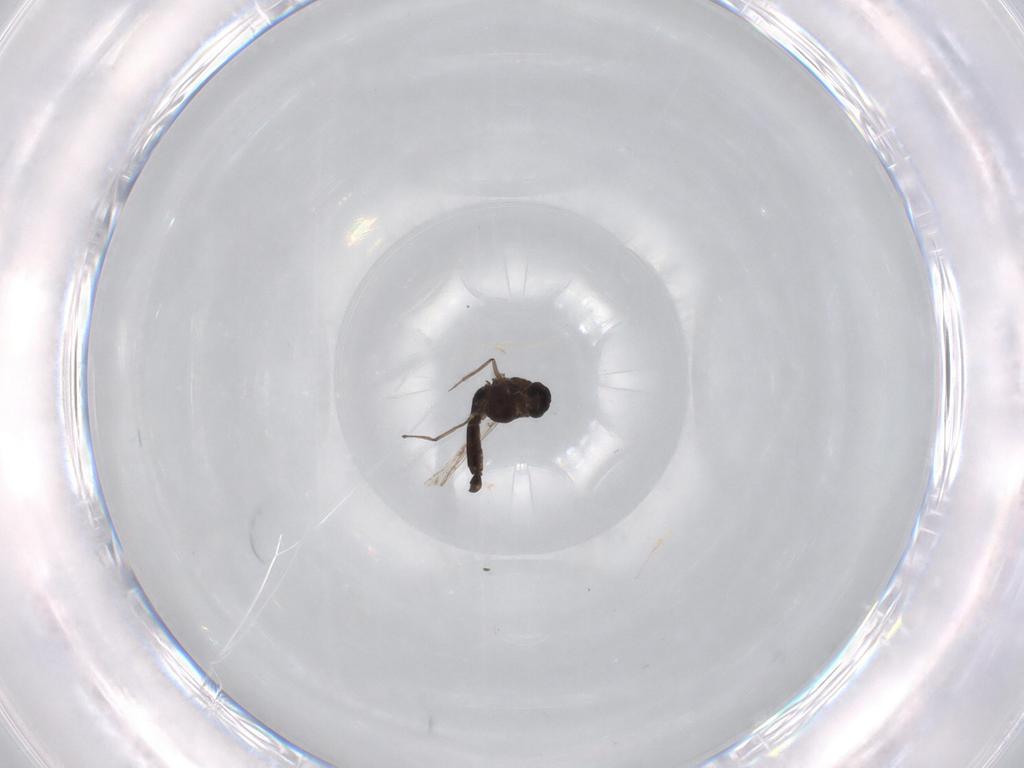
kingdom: Animalia
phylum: Arthropoda
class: Insecta
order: Diptera
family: Chironomidae
